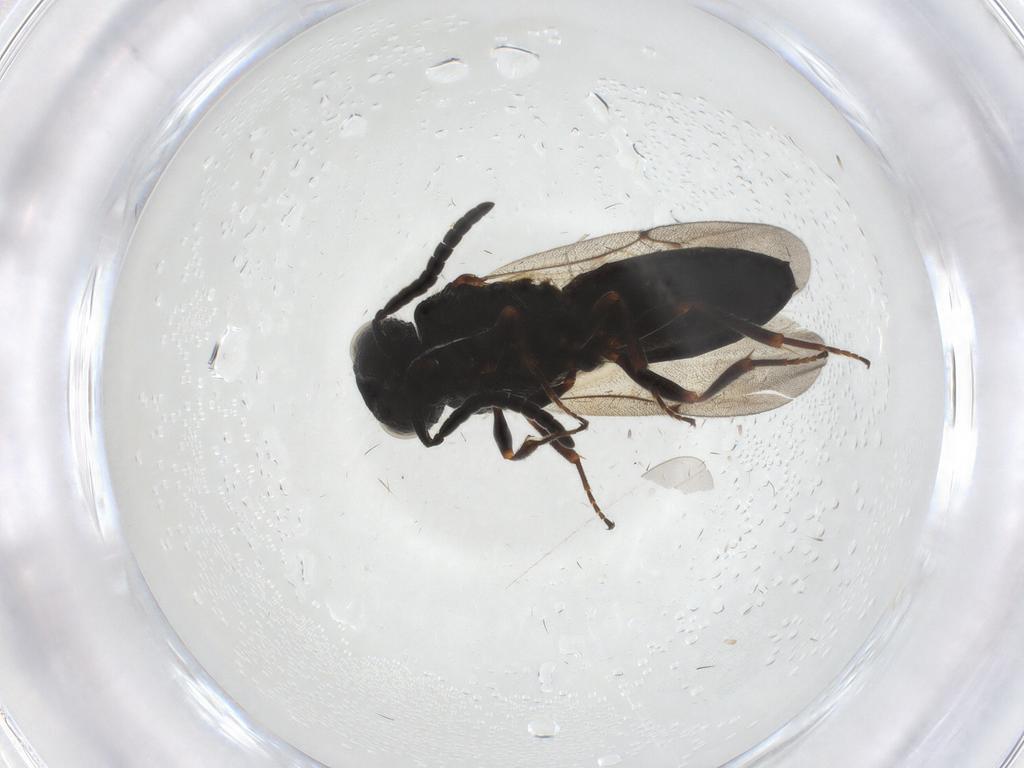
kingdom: Animalia
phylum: Arthropoda
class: Insecta
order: Hymenoptera
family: Scelionidae
